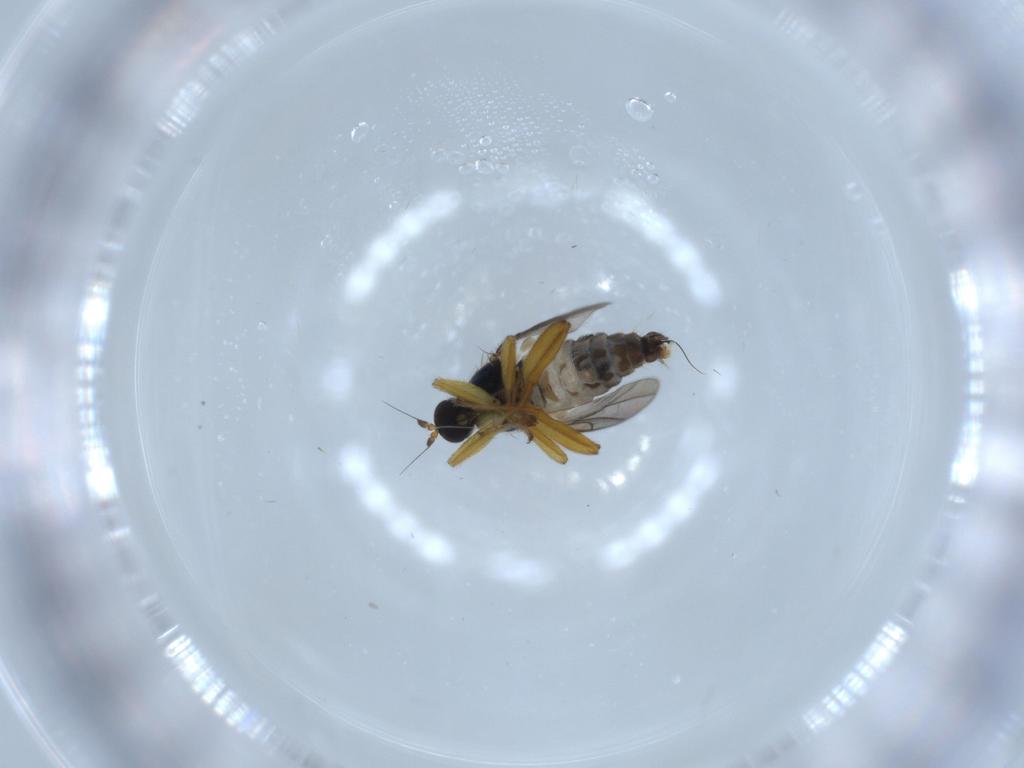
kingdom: Animalia
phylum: Arthropoda
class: Insecta
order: Diptera
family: Hybotidae
